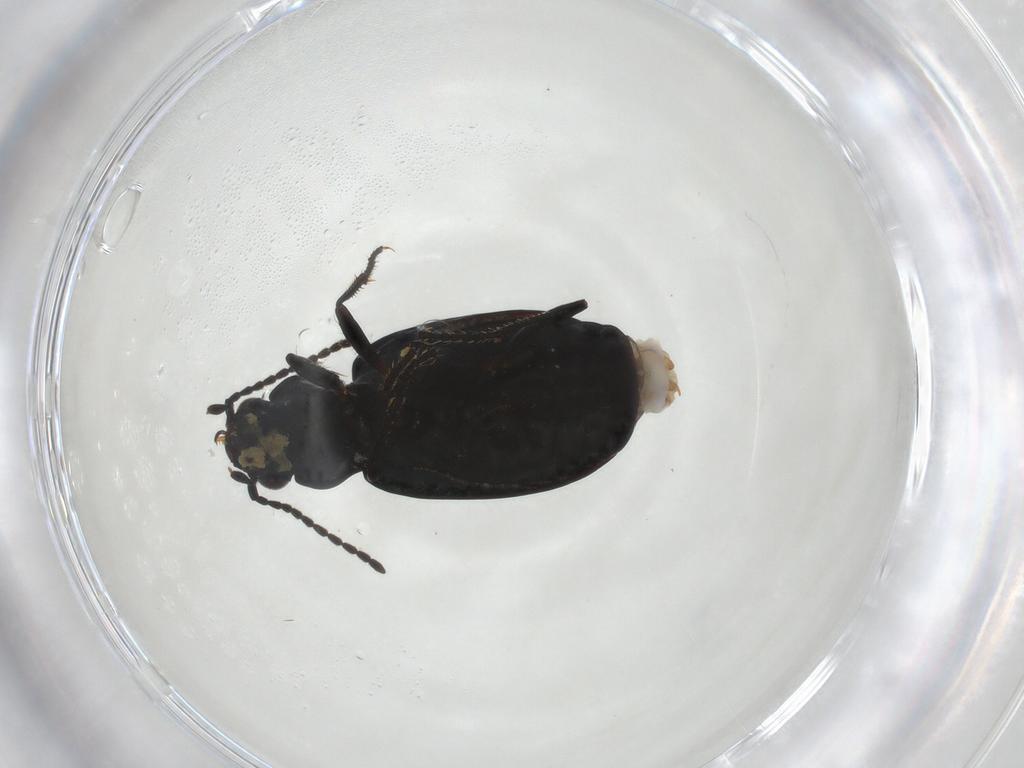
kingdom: Animalia
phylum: Arthropoda
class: Insecta
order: Coleoptera
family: Carabidae
